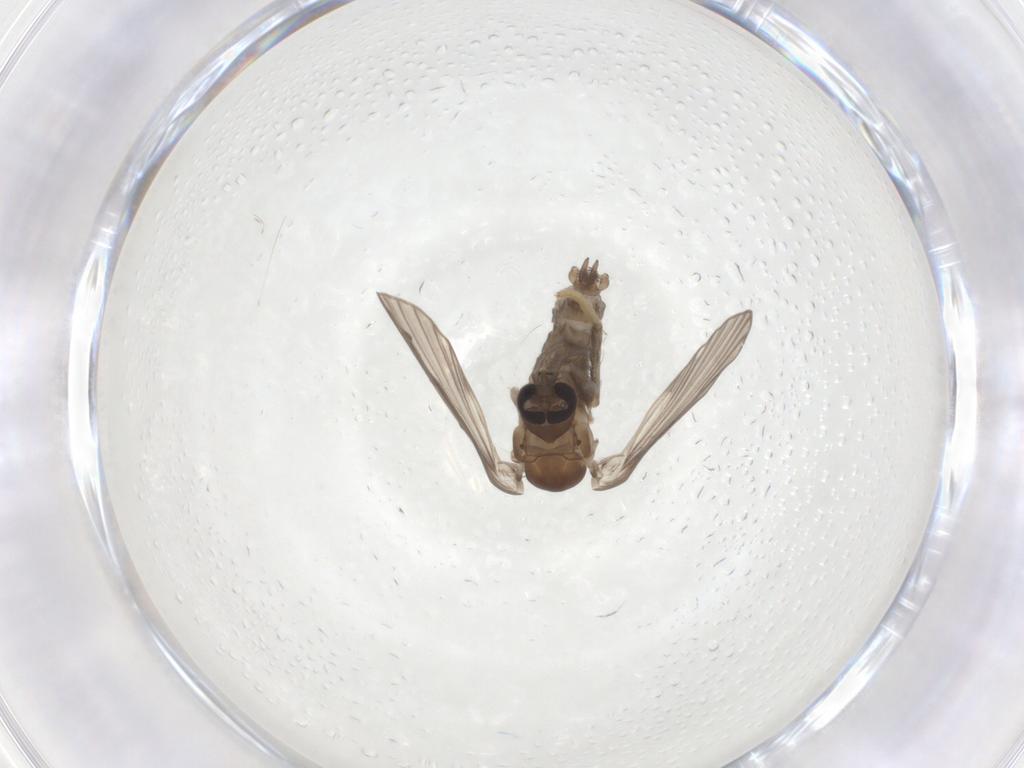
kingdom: Animalia
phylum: Arthropoda
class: Insecta
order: Diptera
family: Psychodidae
